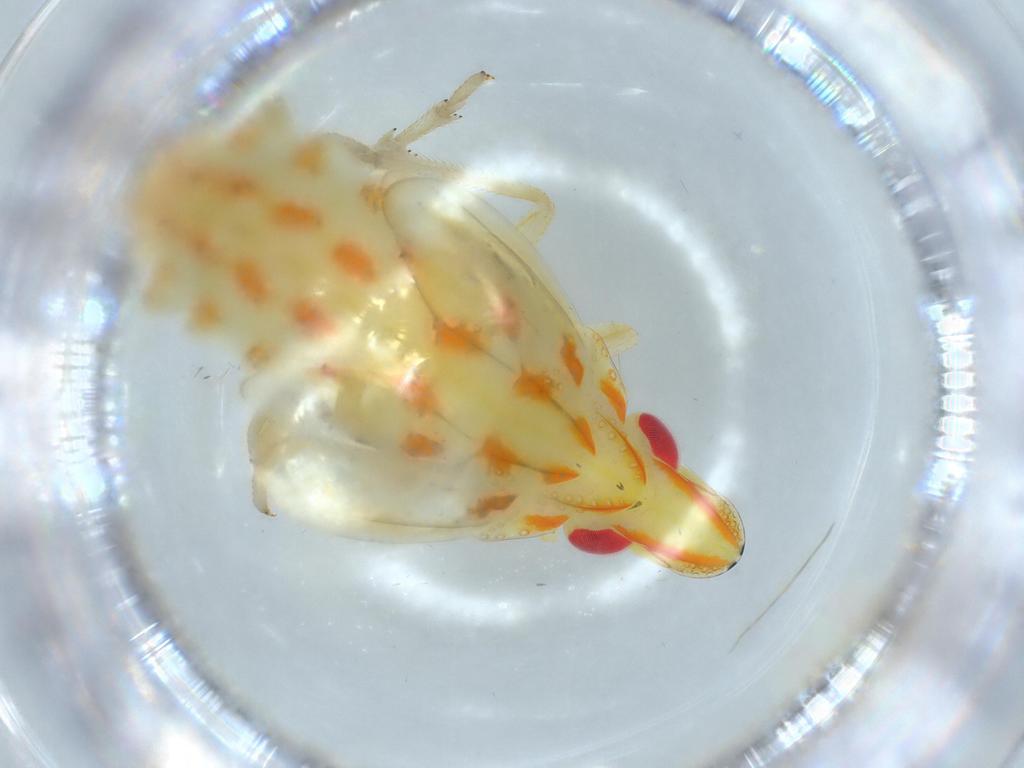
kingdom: Animalia
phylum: Arthropoda
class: Insecta
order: Hemiptera
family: Tropiduchidae
